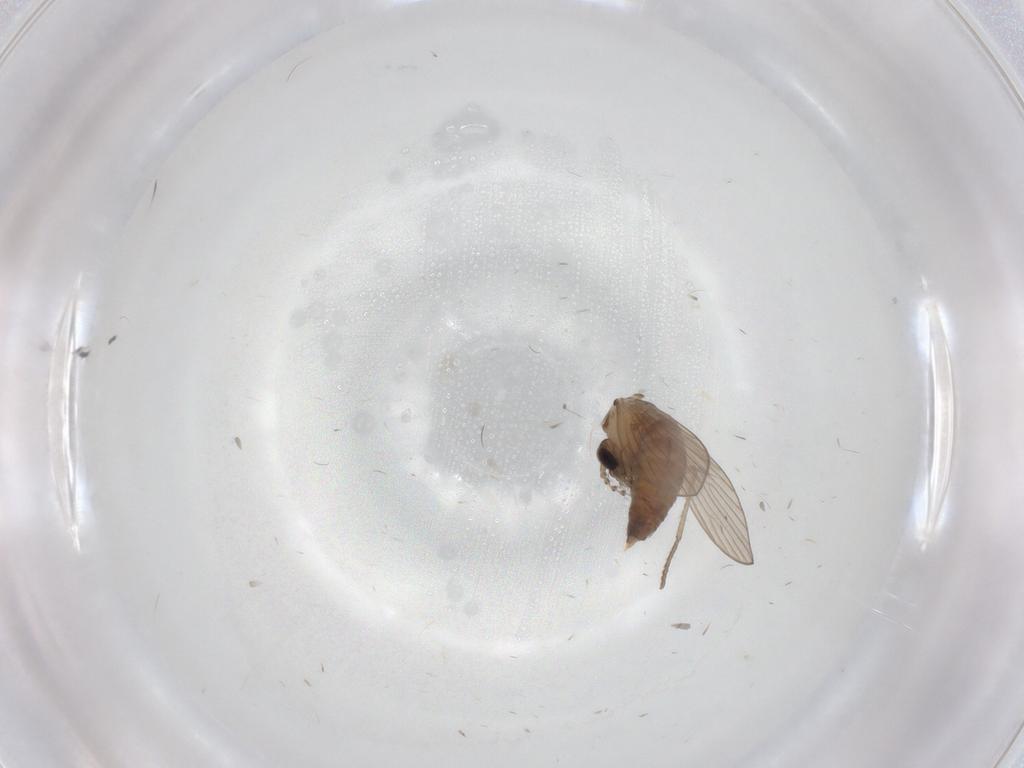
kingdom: Animalia
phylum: Arthropoda
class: Insecta
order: Diptera
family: Psychodidae
